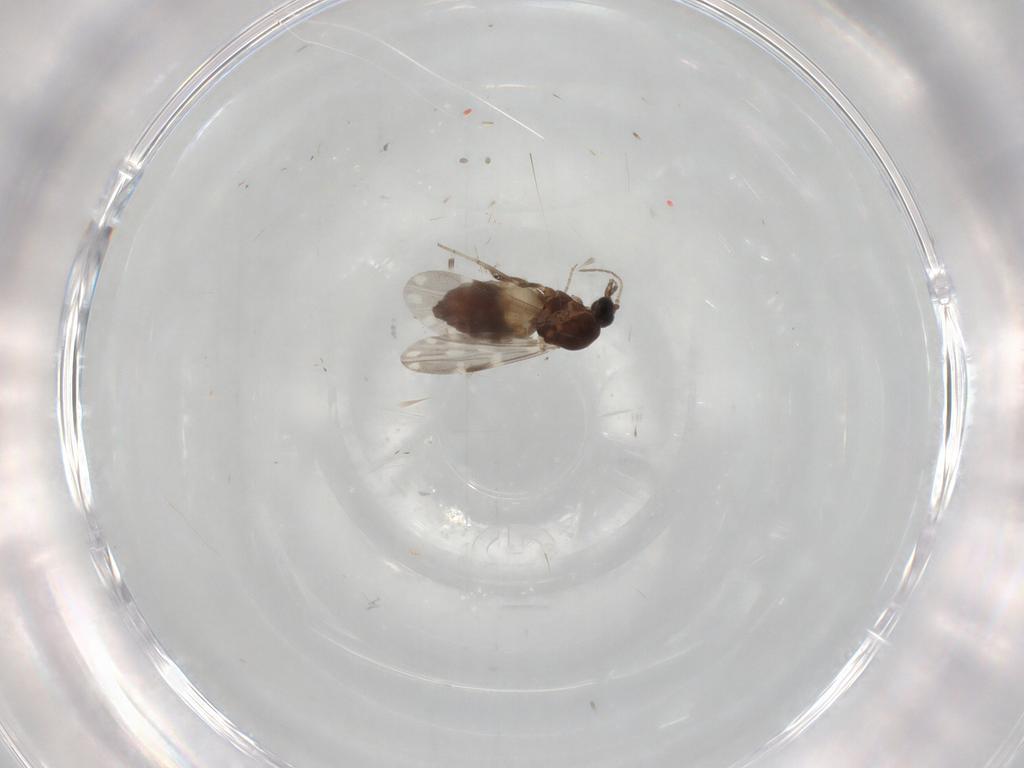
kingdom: Animalia
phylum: Arthropoda
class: Insecta
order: Diptera
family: Ceratopogonidae
